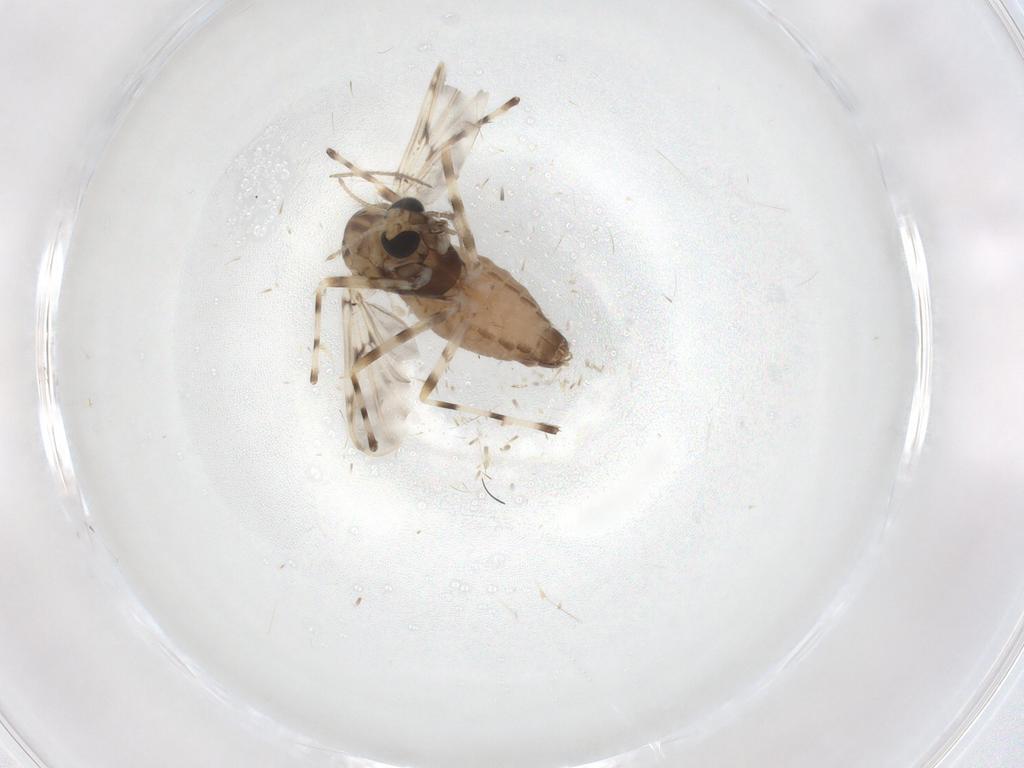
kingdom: Animalia
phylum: Arthropoda
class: Insecta
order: Diptera
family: Chironomidae
